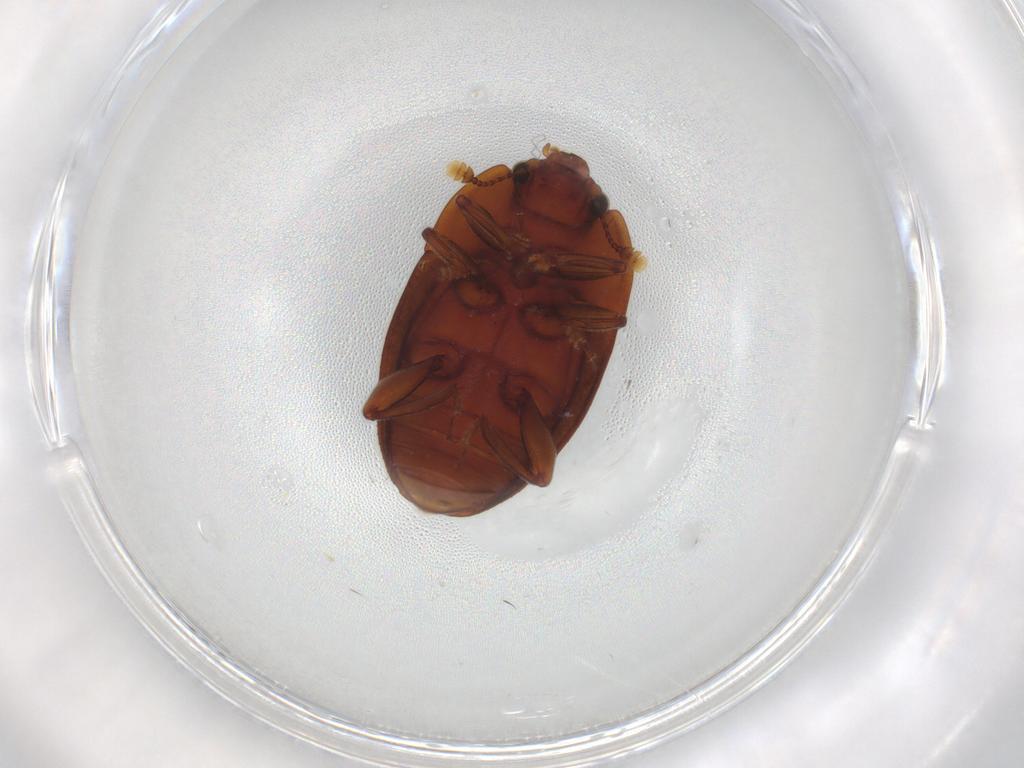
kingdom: Animalia
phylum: Arthropoda
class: Insecta
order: Coleoptera
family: Nitidulidae
